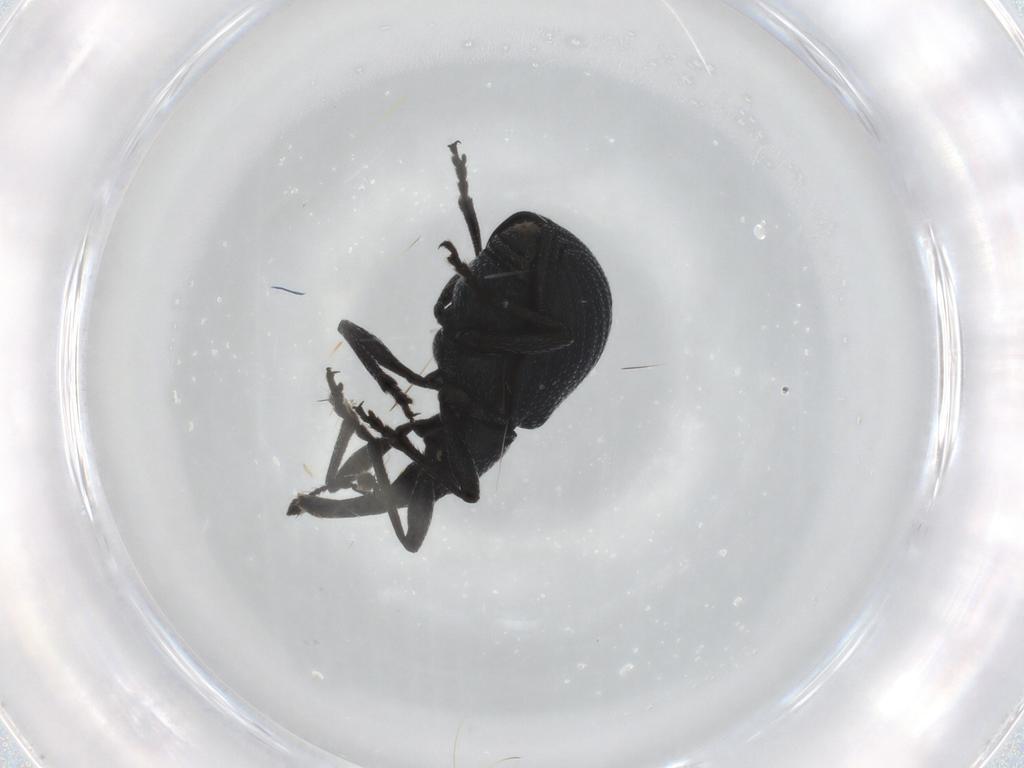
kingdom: Animalia
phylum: Arthropoda
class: Insecta
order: Coleoptera
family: Brentidae
